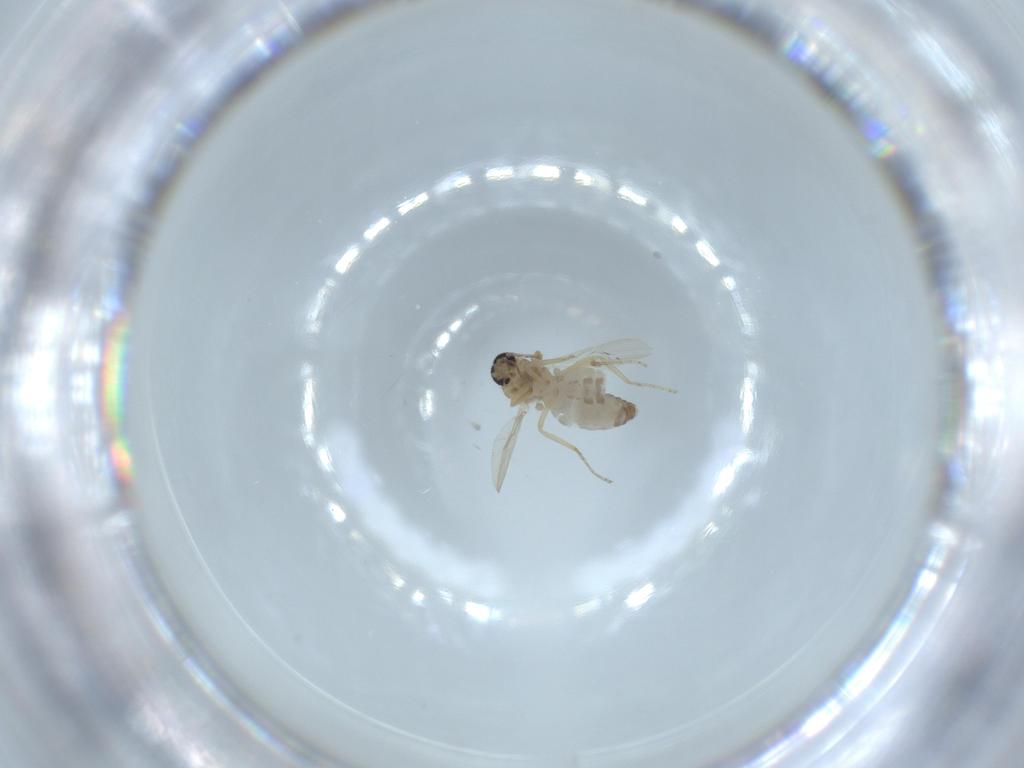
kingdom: Animalia
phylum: Arthropoda
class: Insecta
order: Diptera
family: Ceratopogonidae
